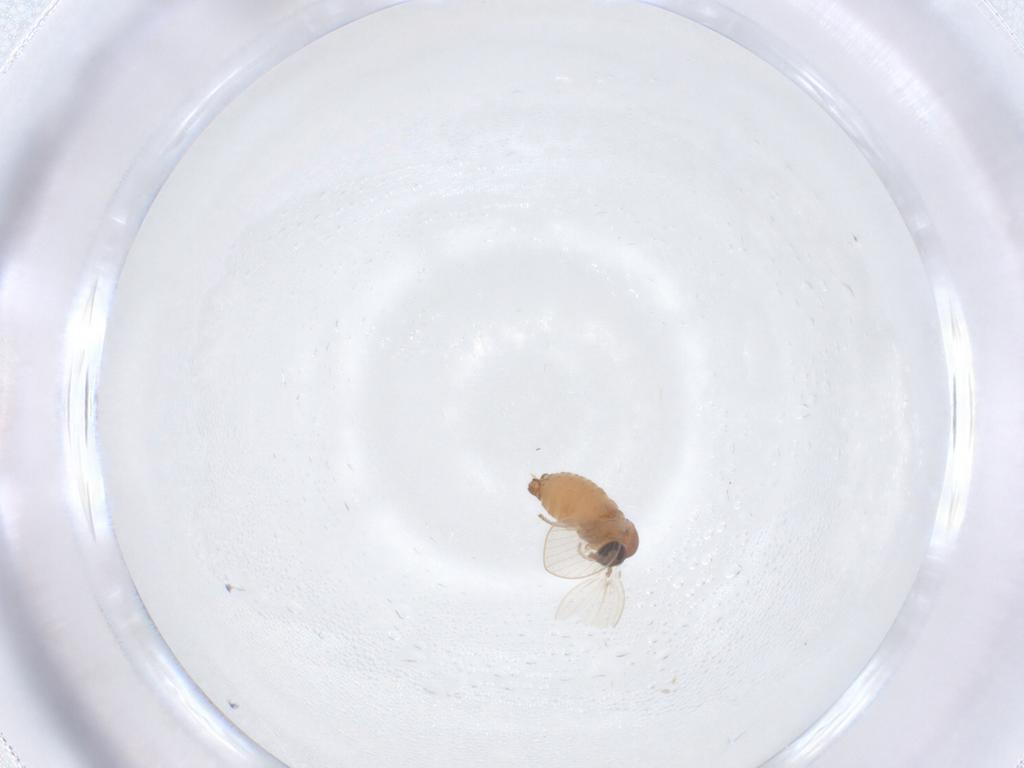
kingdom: Animalia
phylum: Arthropoda
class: Insecta
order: Diptera
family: Psychodidae
